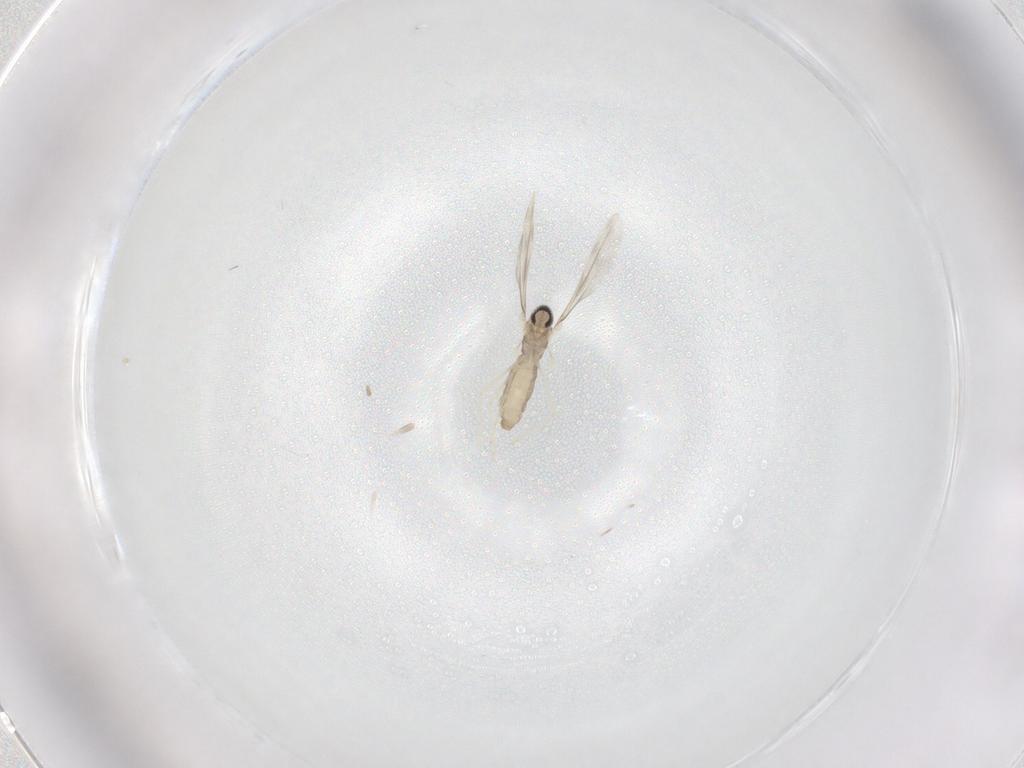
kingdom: Animalia
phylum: Arthropoda
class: Insecta
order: Diptera
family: Cecidomyiidae
